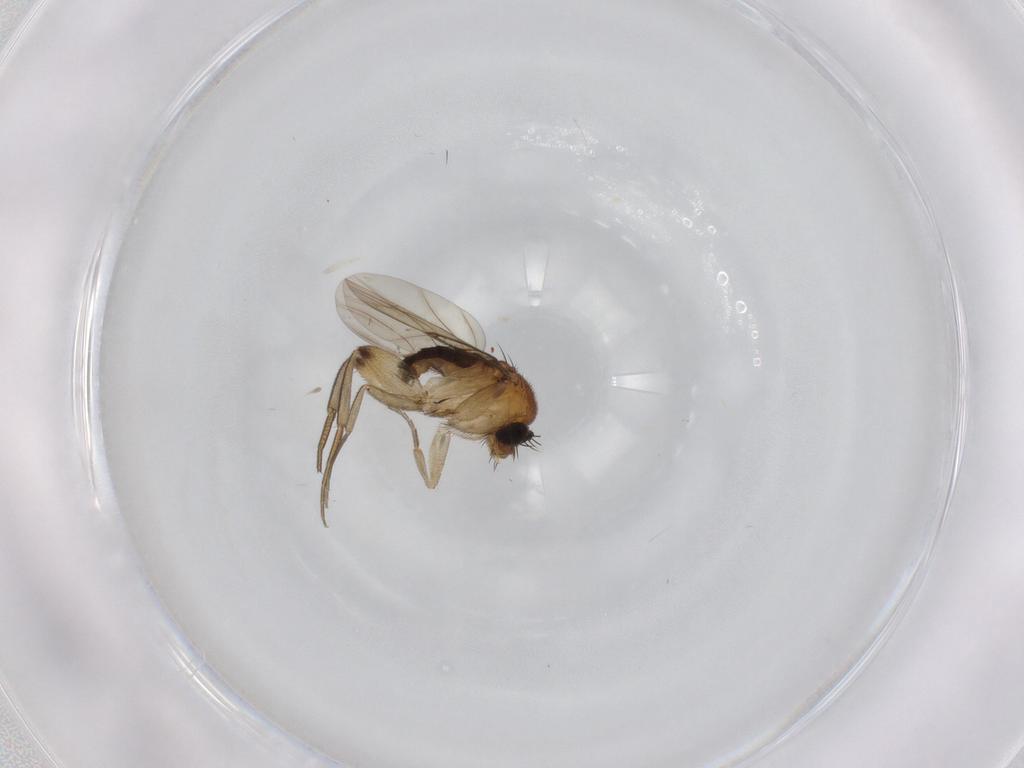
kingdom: Animalia
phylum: Arthropoda
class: Insecta
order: Diptera
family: Phoridae
